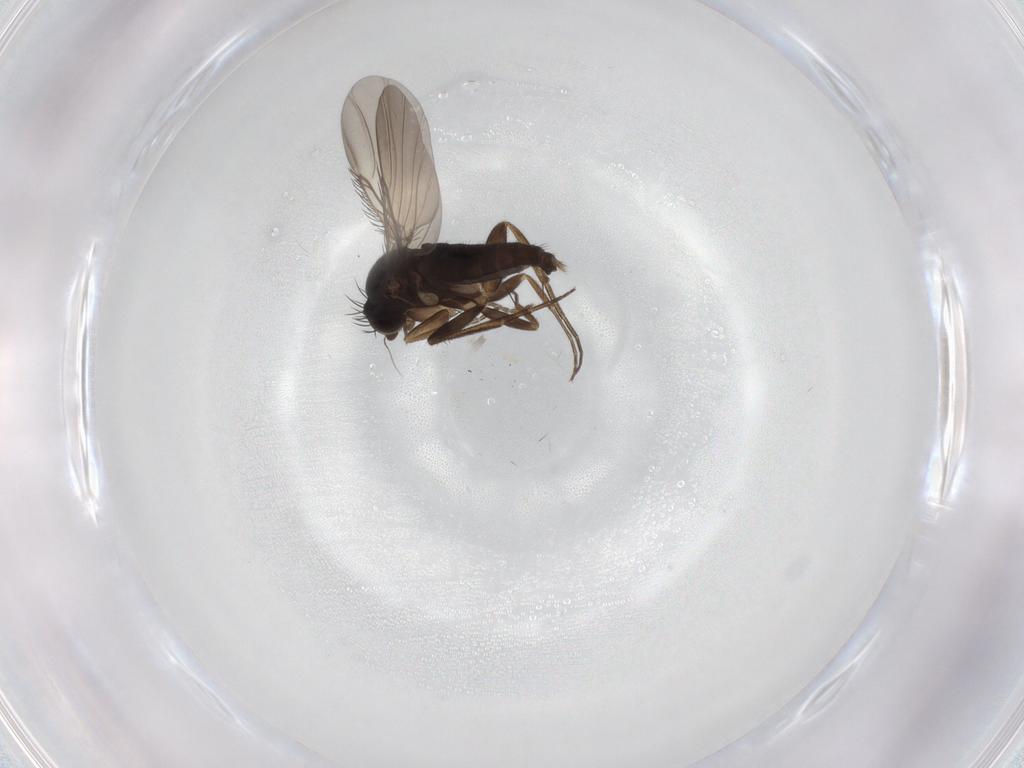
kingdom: Animalia
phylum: Arthropoda
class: Insecta
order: Diptera
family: Phoridae
